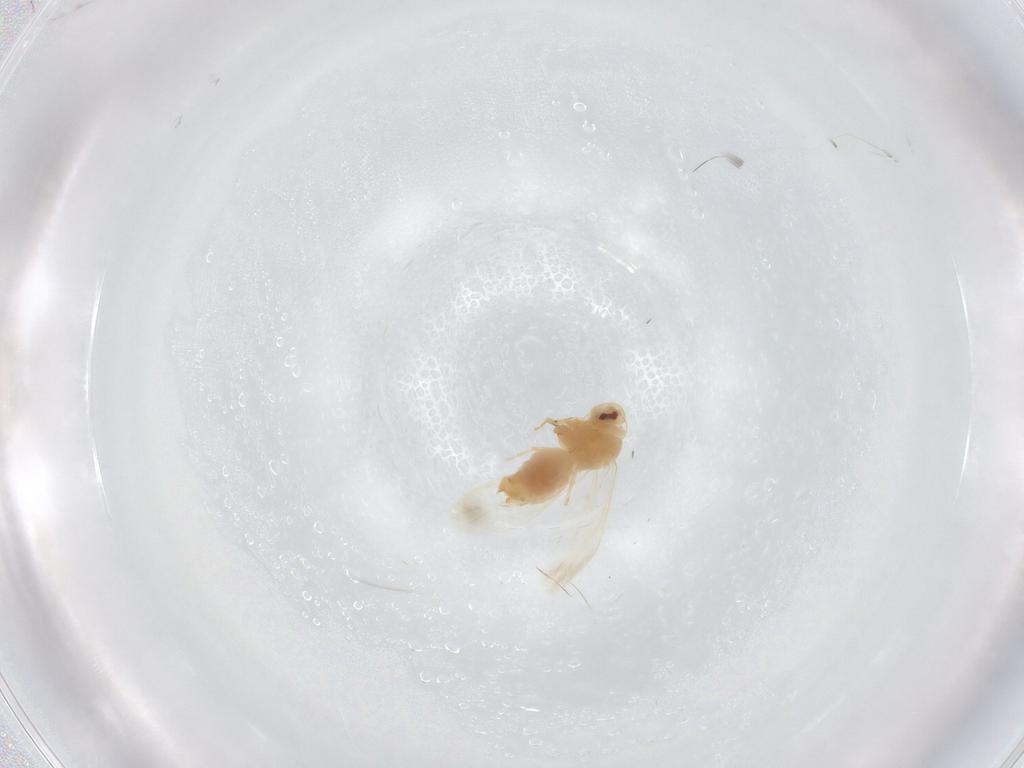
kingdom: Animalia
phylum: Arthropoda
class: Insecta
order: Hemiptera
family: Aleyrodidae
